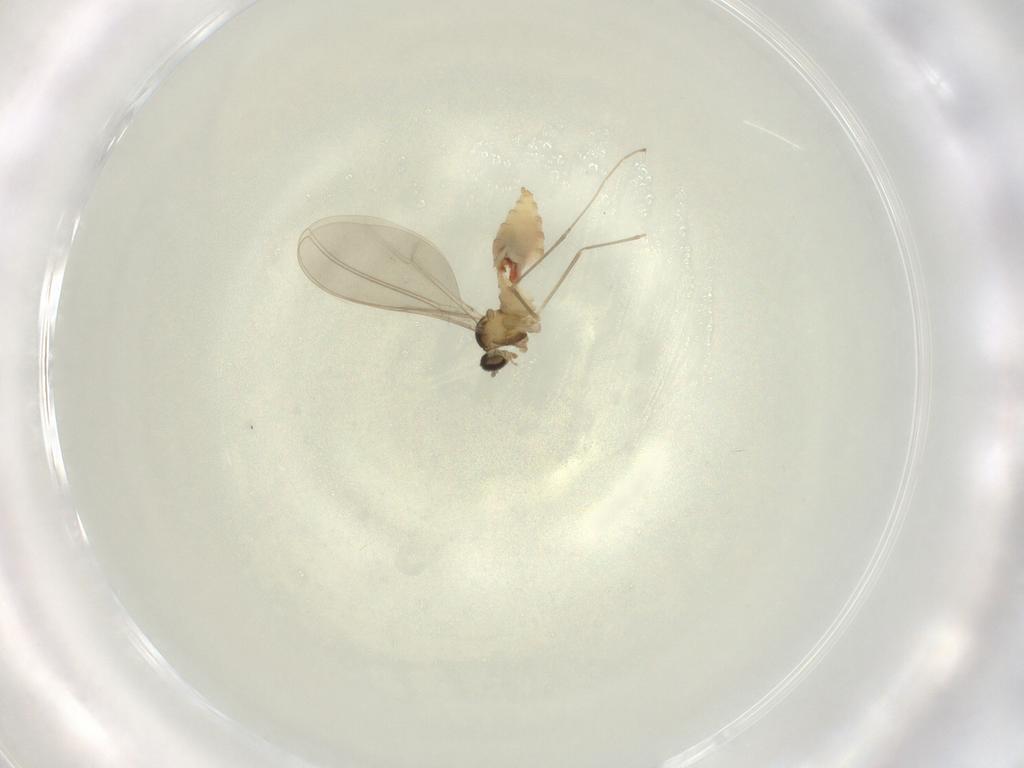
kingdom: Animalia
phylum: Arthropoda
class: Insecta
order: Diptera
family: Cecidomyiidae
